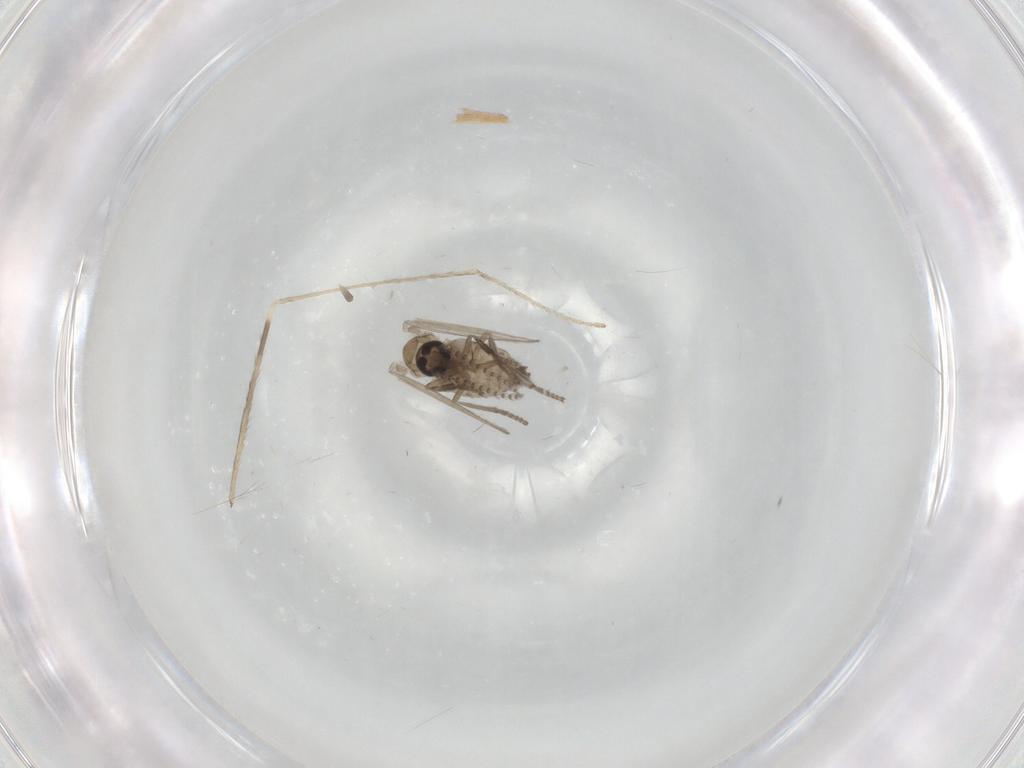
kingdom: Animalia
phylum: Arthropoda
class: Insecta
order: Diptera
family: Psychodidae
